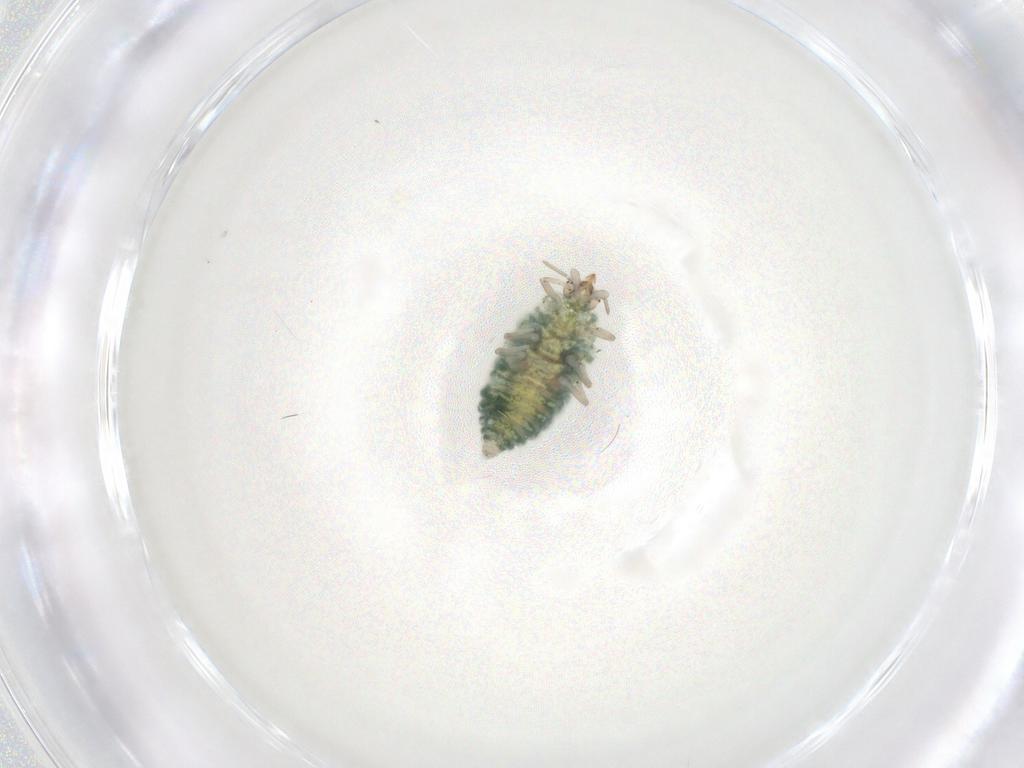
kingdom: Animalia
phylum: Arthropoda
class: Insecta
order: Neuroptera
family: Coniopterygidae
